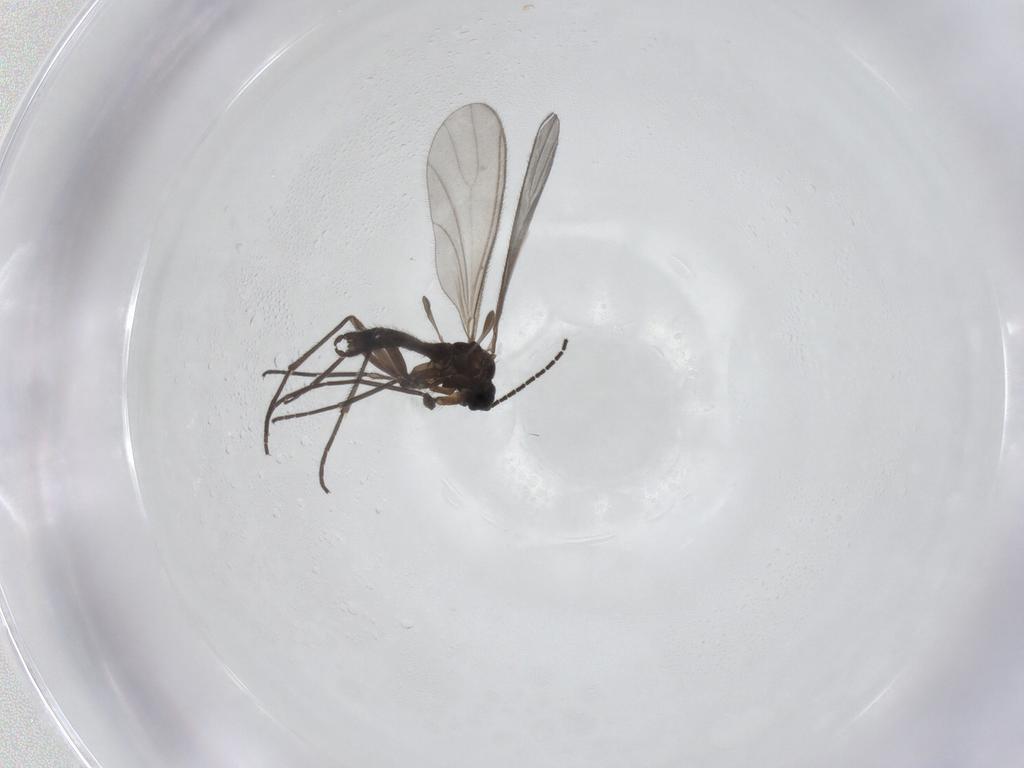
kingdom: Animalia
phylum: Arthropoda
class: Insecta
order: Diptera
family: Sciaridae
